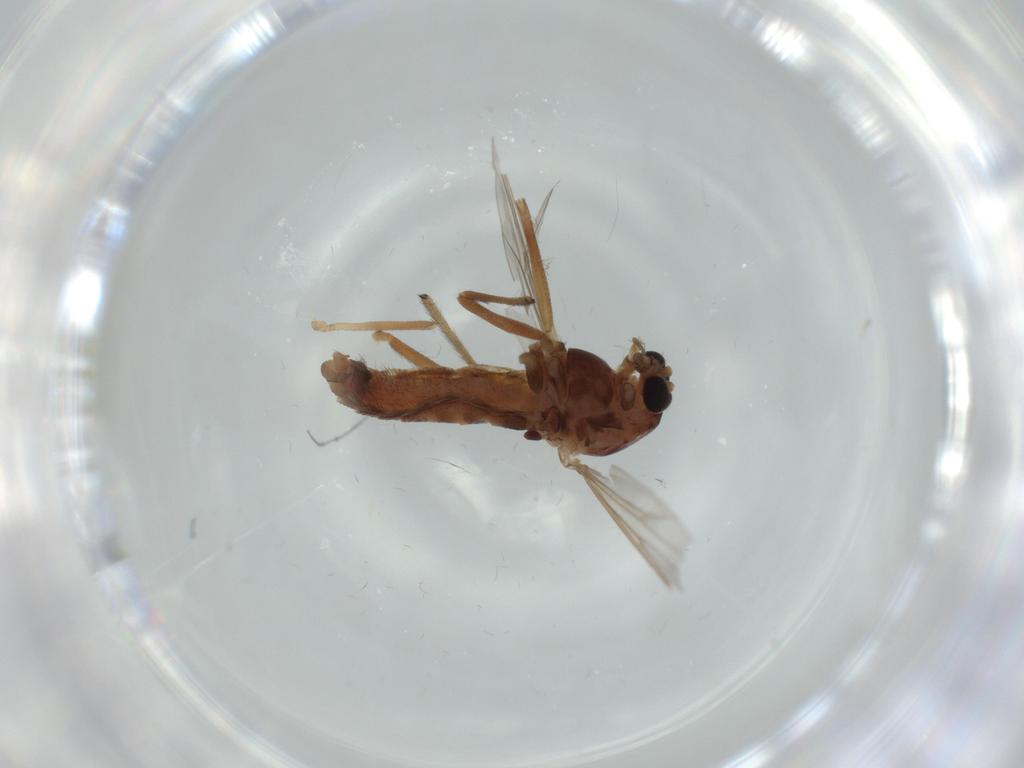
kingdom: Animalia
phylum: Arthropoda
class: Insecta
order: Diptera
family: Chironomidae
